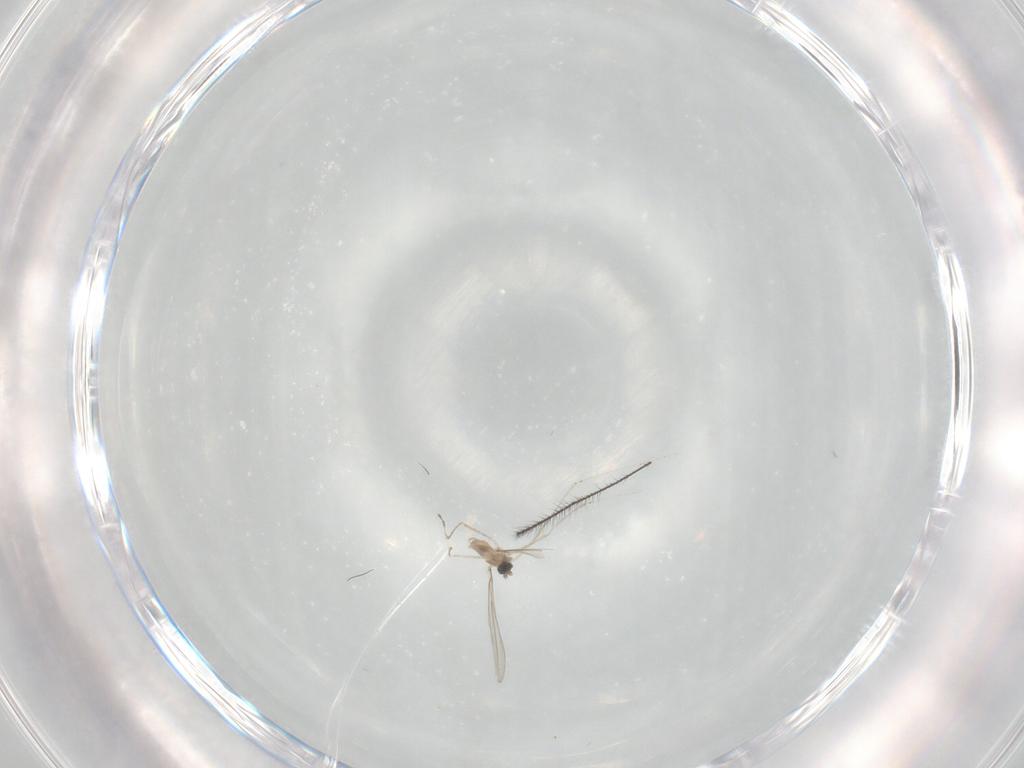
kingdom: Animalia
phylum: Arthropoda
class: Insecta
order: Diptera
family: Cecidomyiidae
